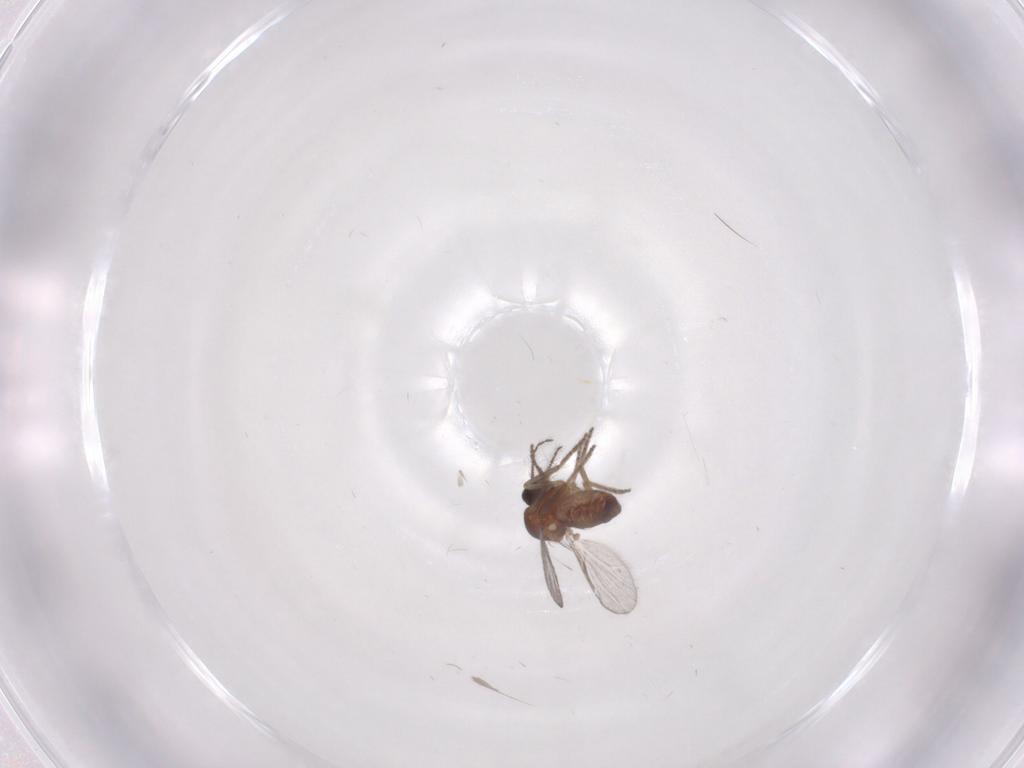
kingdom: Animalia
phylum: Arthropoda
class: Insecta
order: Diptera
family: Ceratopogonidae
